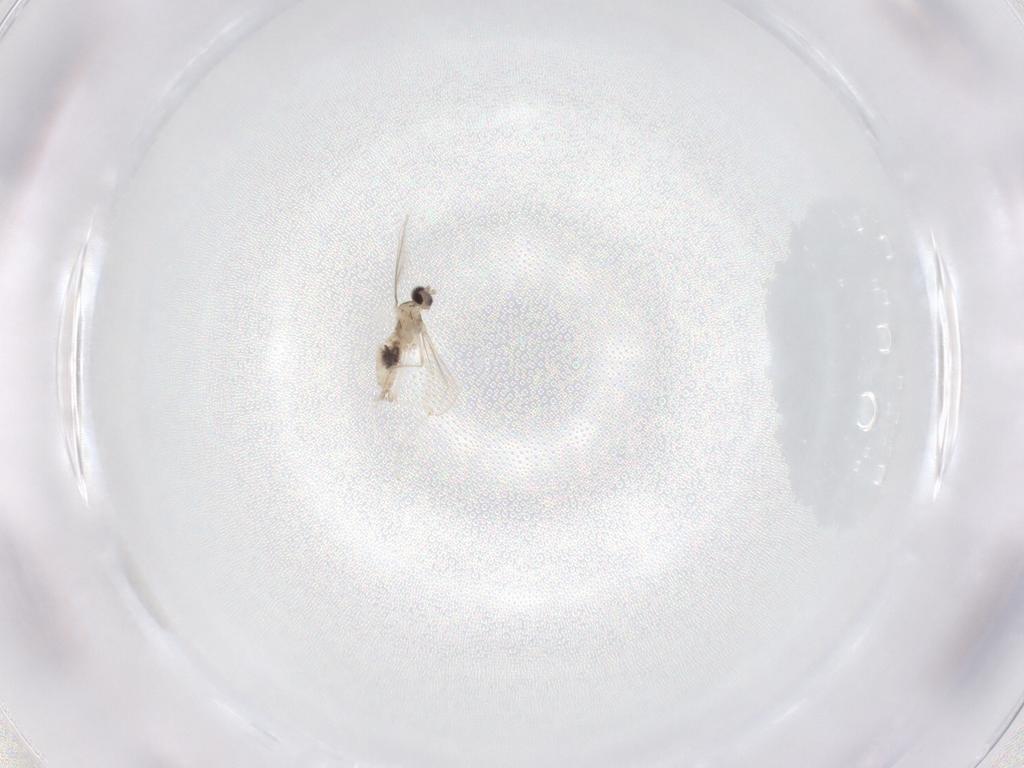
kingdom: Animalia
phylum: Arthropoda
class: Insecta
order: Diptera
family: Cecidomyiidae
